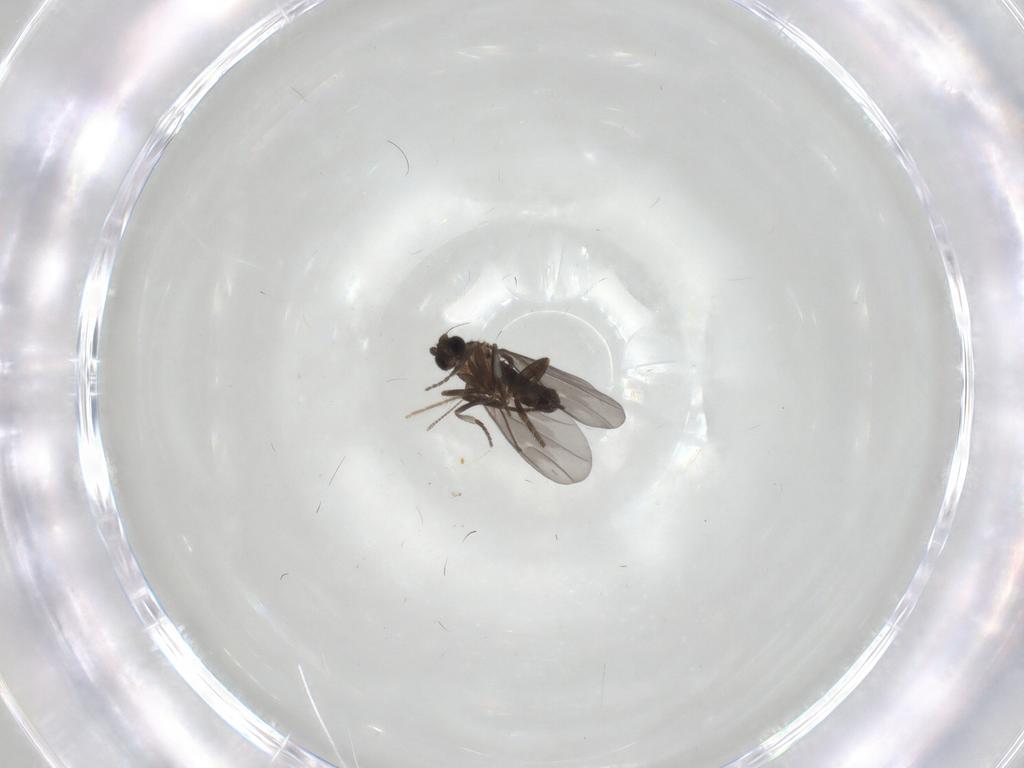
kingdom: Animalia
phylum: Arthropoda
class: Insecta
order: Diptera
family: Phoridae
